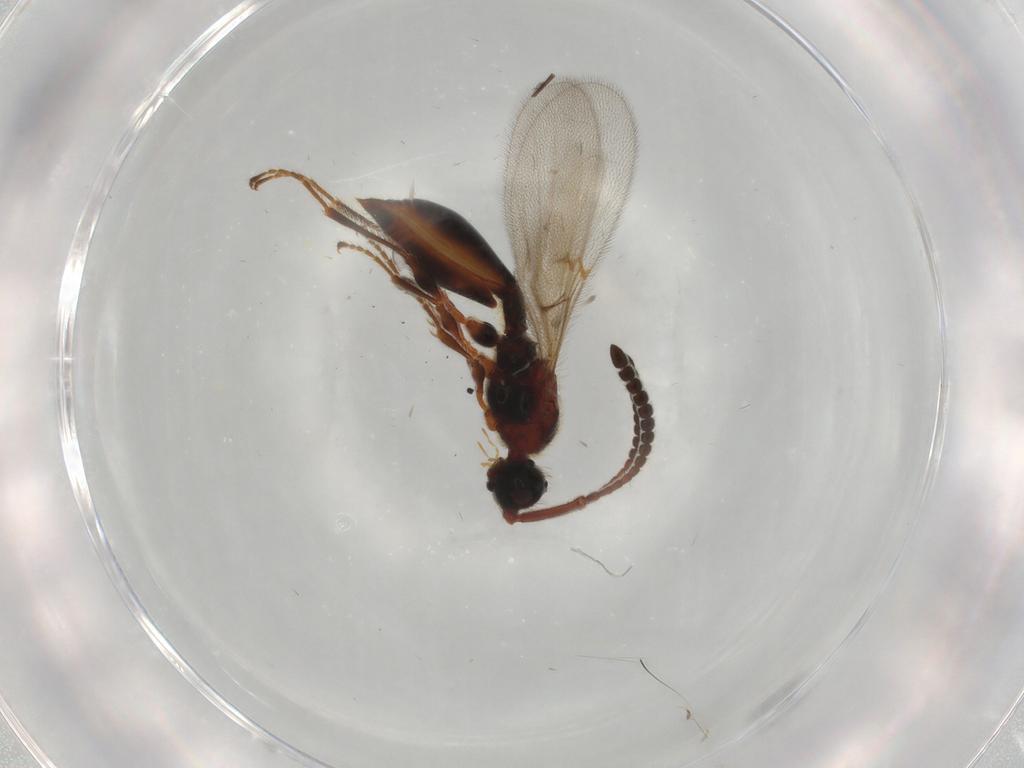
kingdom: Animalia
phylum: Arthropoda
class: Insecta
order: Hymenoptera
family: Diapriidae
